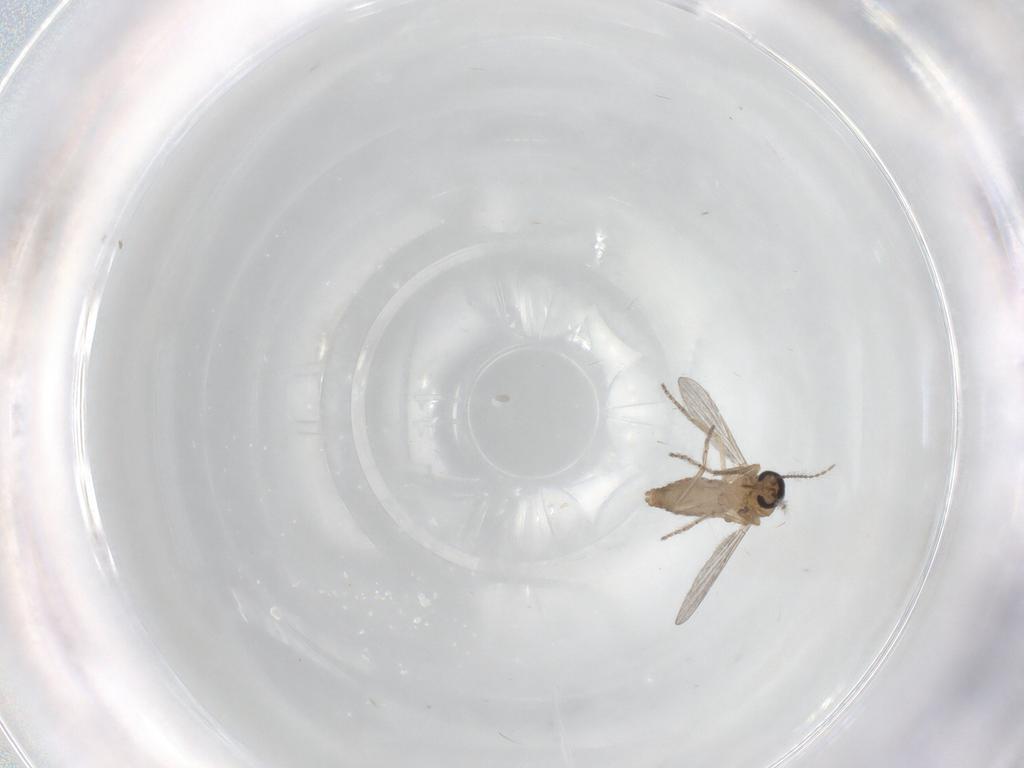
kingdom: Animalia
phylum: Arthropoda
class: Insecta
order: Diptera
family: Ceratopogonidae
